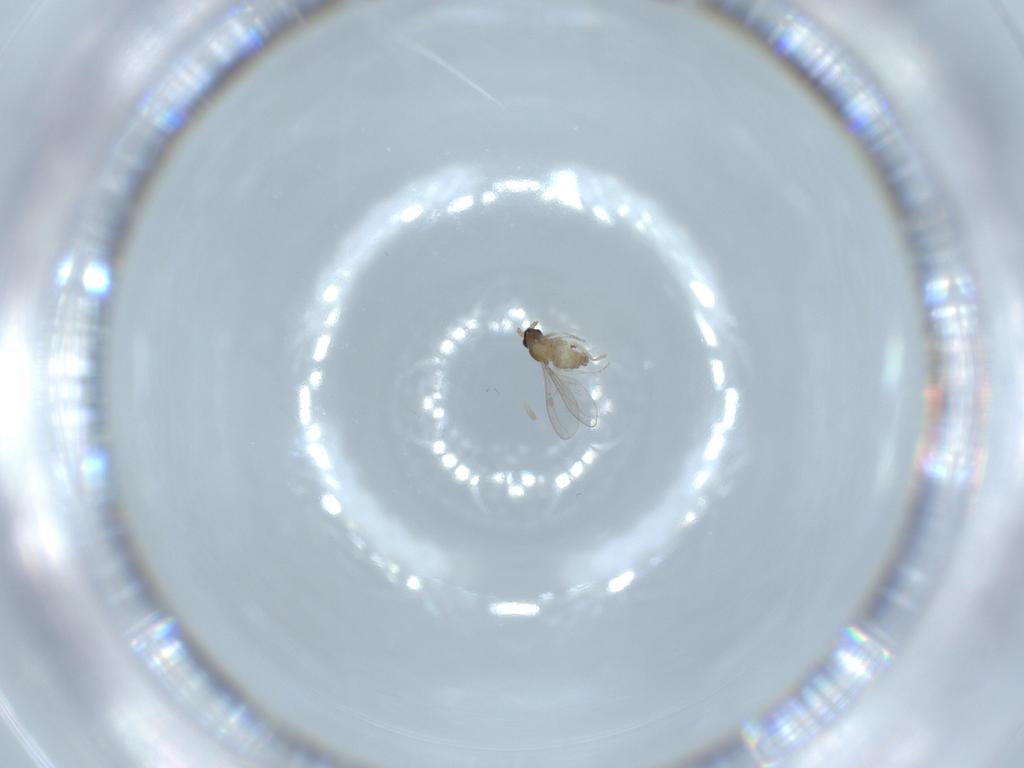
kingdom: Animalia
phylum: Arthropoda
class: Insecta
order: Diptera
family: Cecidomyiidae
